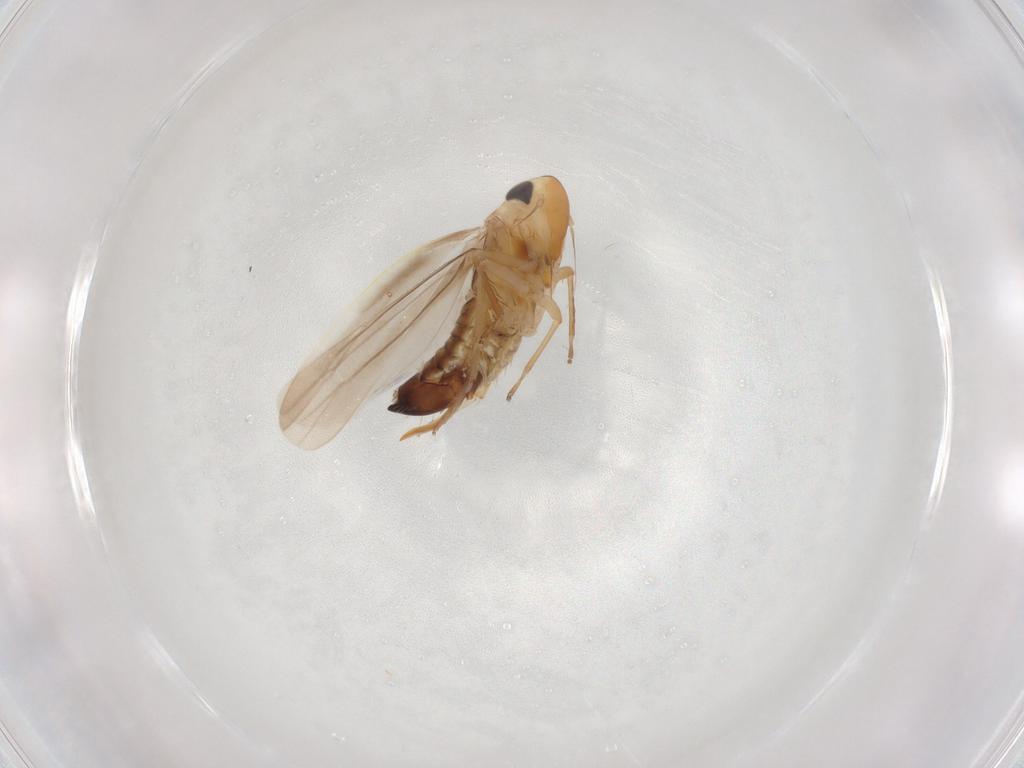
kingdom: Animalia
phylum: Arthropoda
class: Insecta
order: Hemiptera
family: Cicadellidae
